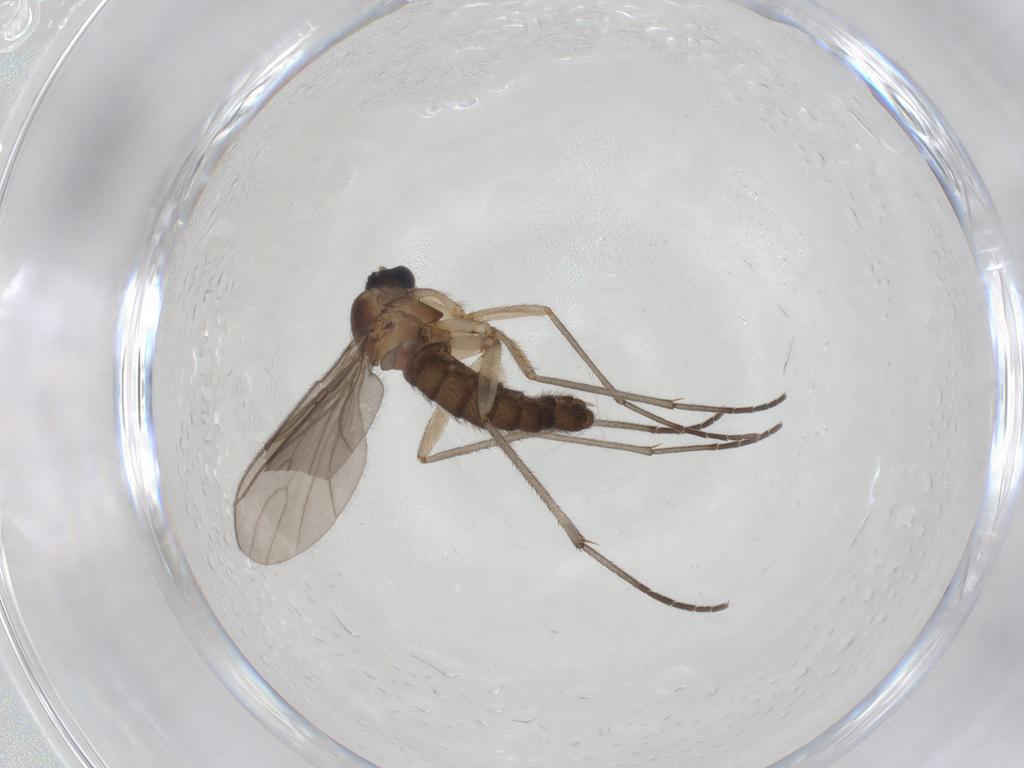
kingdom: Animalia
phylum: Arthropoda
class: Insecta
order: Diptera
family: Sciaridae
